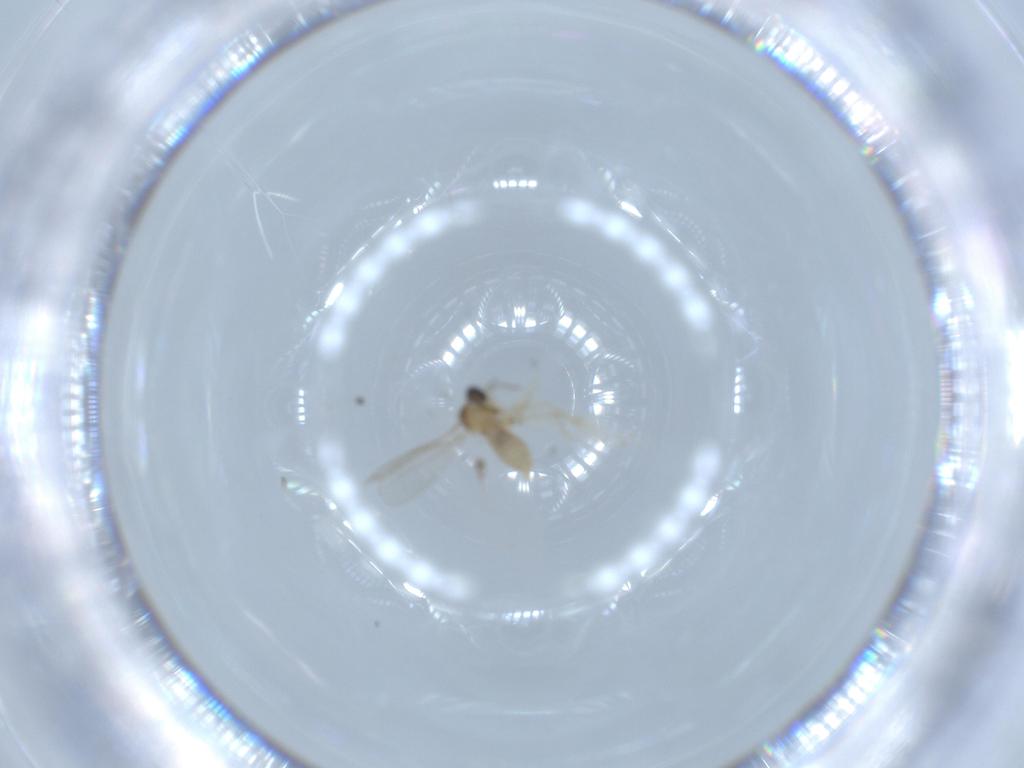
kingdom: Animalia
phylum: Arthropoda
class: Insecta
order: Diptera
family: Cecidomyiidae
